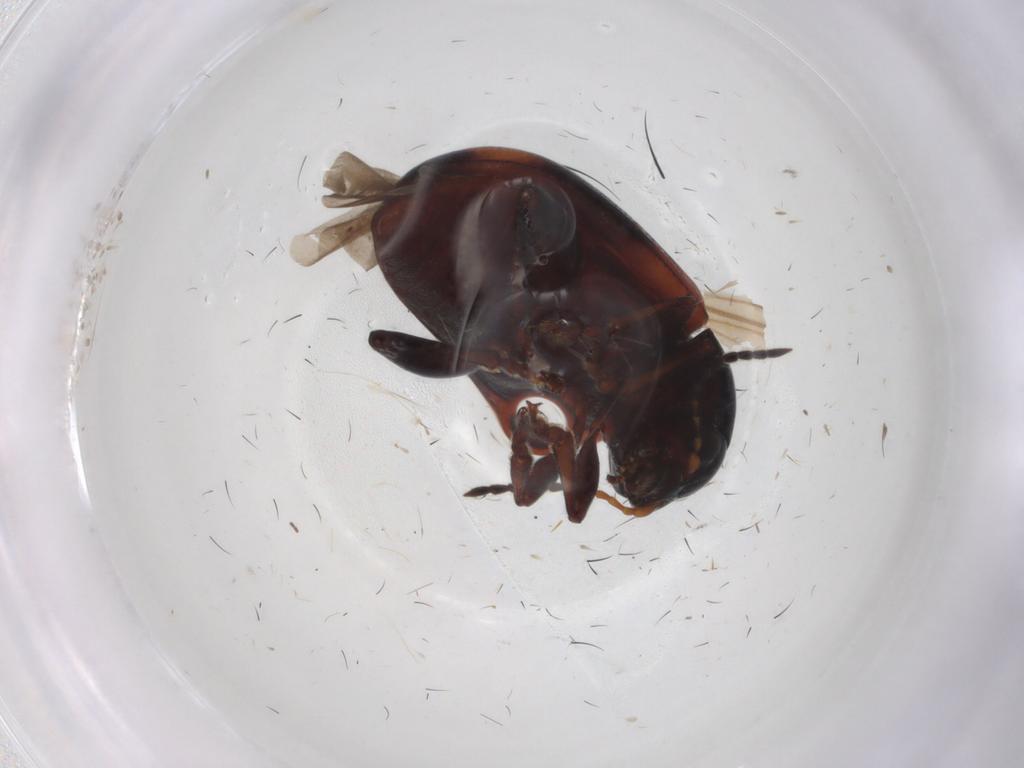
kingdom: Animalia
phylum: Arthropoda
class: Insecta
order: Coleoptera
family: Chrysomelidae
